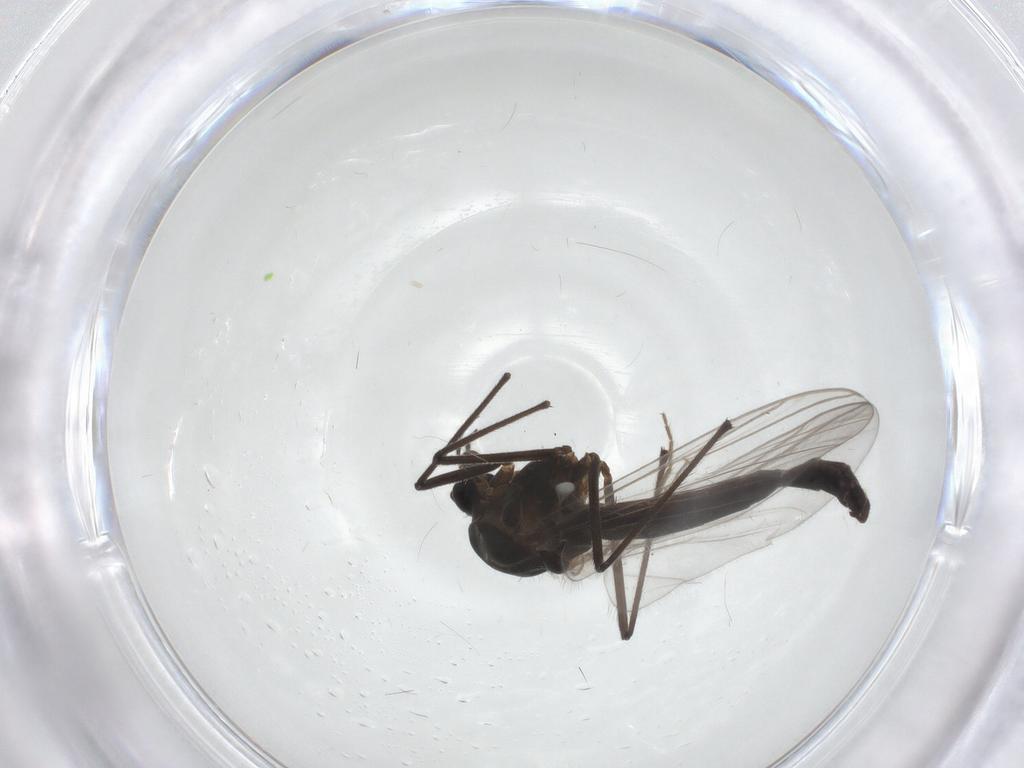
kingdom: Animalia
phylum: Arthropoda
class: Insecta
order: Diptera
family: Chironomidae
